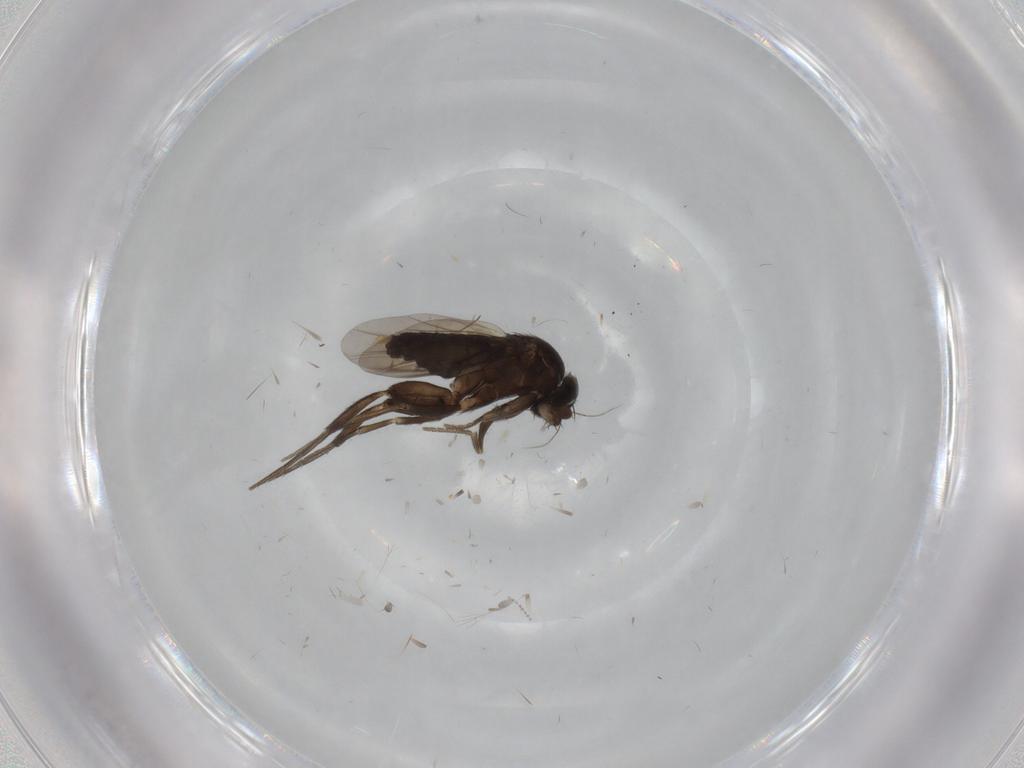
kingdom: Animalia
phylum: Arthropoda
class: Insecta
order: Diptera
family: Phoridae
